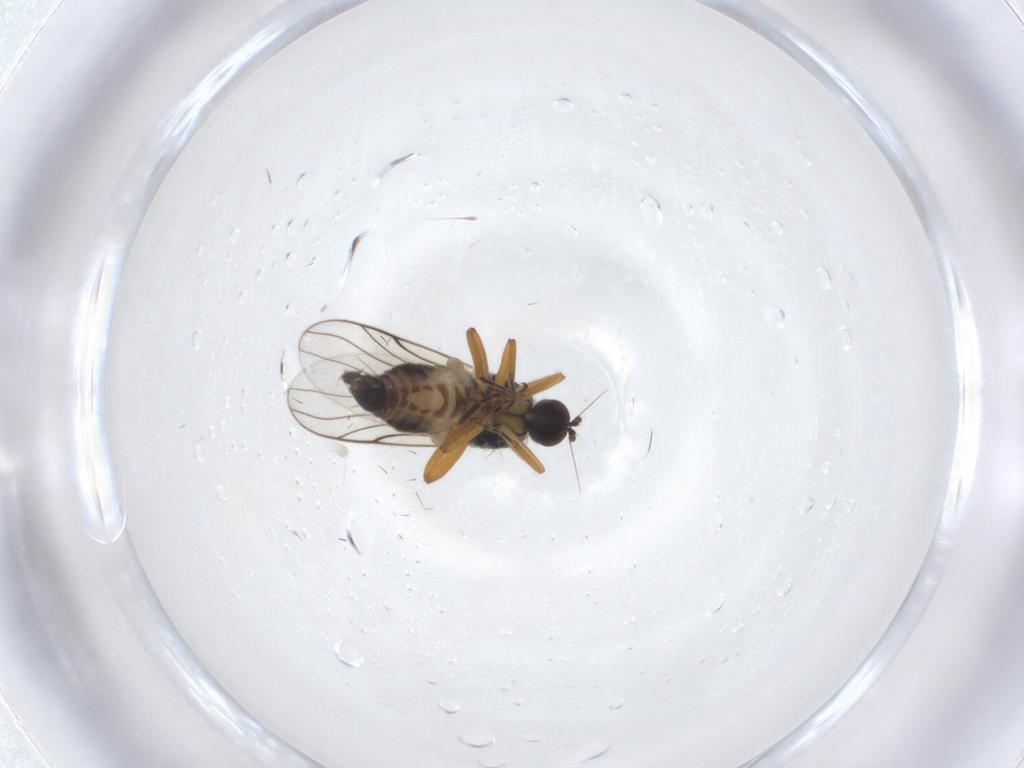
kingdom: Animalia
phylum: Arthropoda
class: Insecta
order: Diptera
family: Hybotidae
